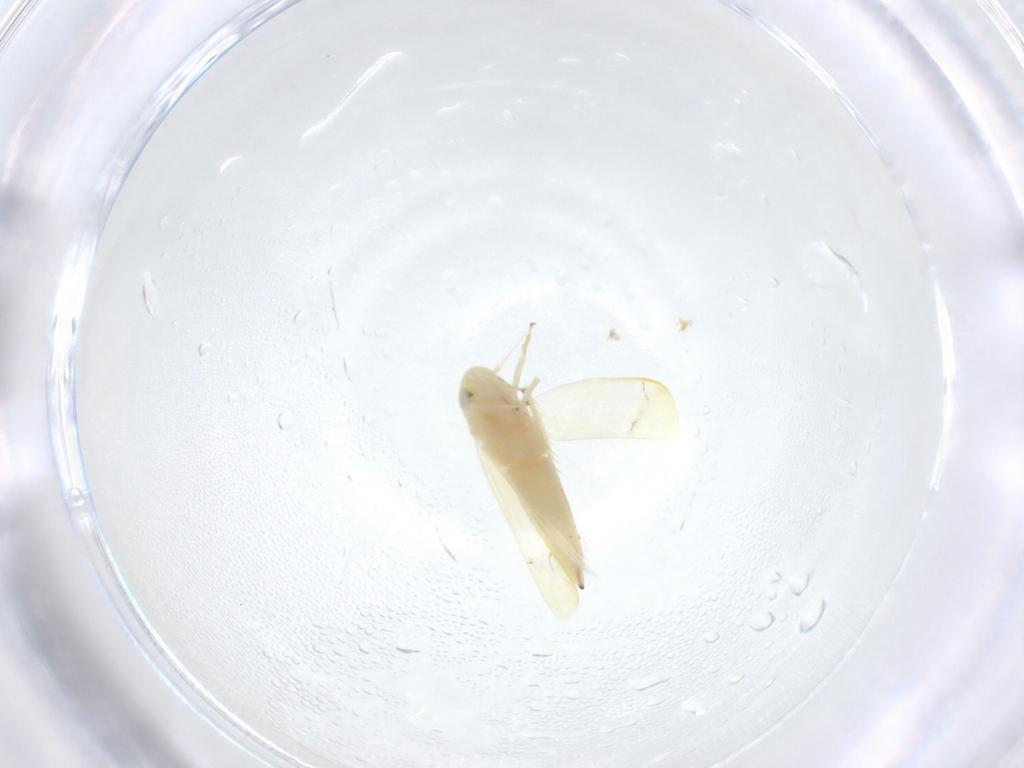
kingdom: Animalia
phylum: Arthropoda
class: Insecta
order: Hemiptera
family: Cicadellidae
